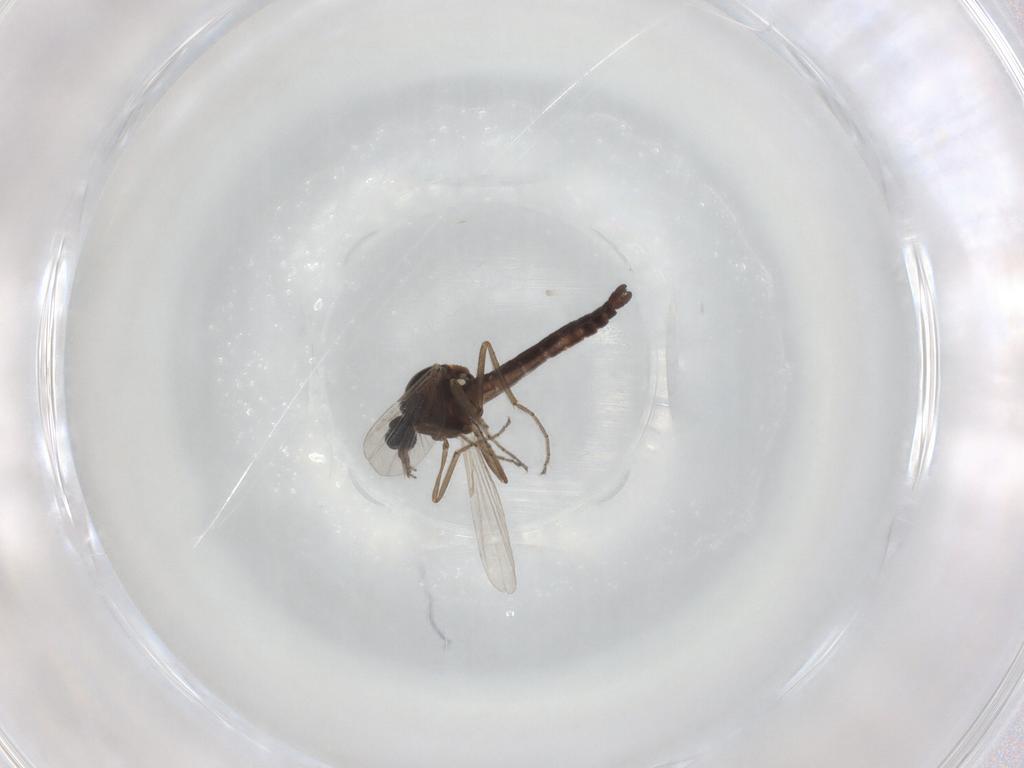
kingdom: Animalia
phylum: Arthropoda
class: Insecta
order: Diptera
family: Ceratopogonidae
